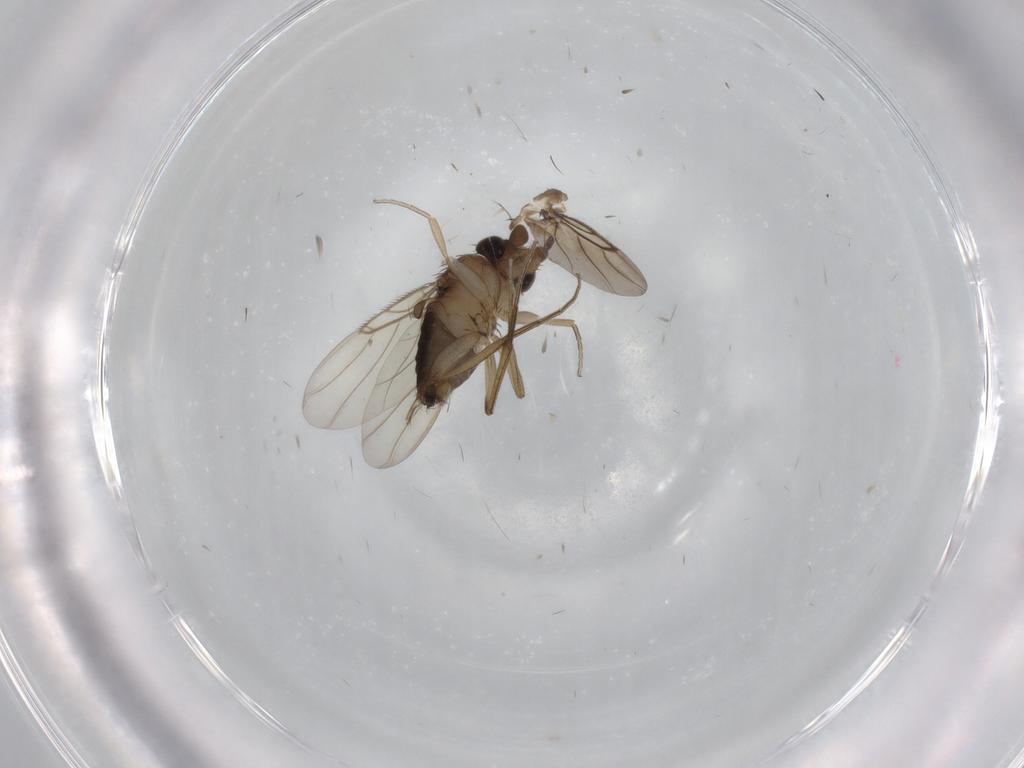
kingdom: Animalia
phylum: Arthropoda
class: Insecta
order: Diptera
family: Phoridae
